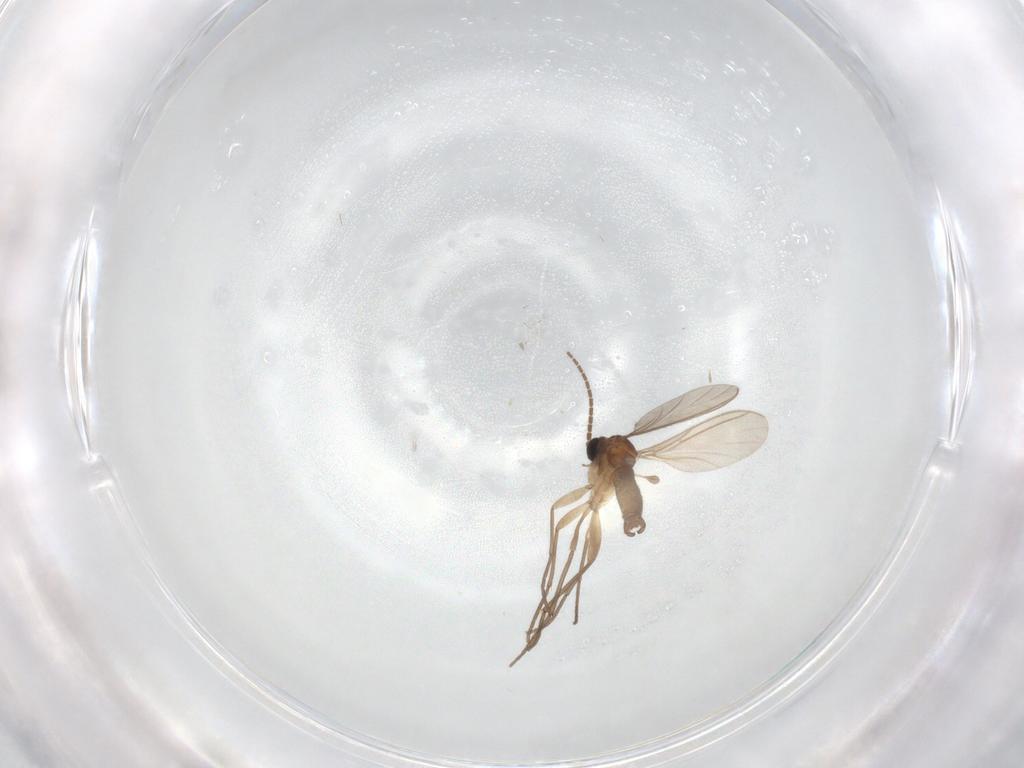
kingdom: Animalia
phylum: Arthropoda
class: Insecta
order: Diptera
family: Sciaridae
